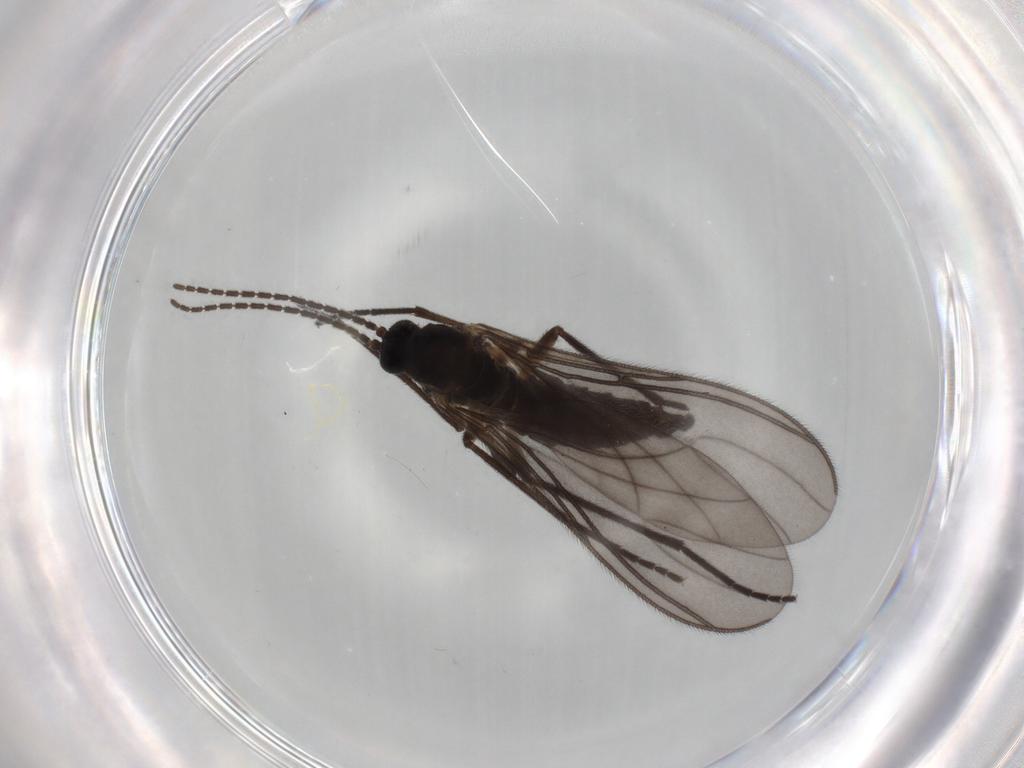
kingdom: Animalia
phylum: Arthropoda
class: Insecta
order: Diptera
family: Sciaridae
